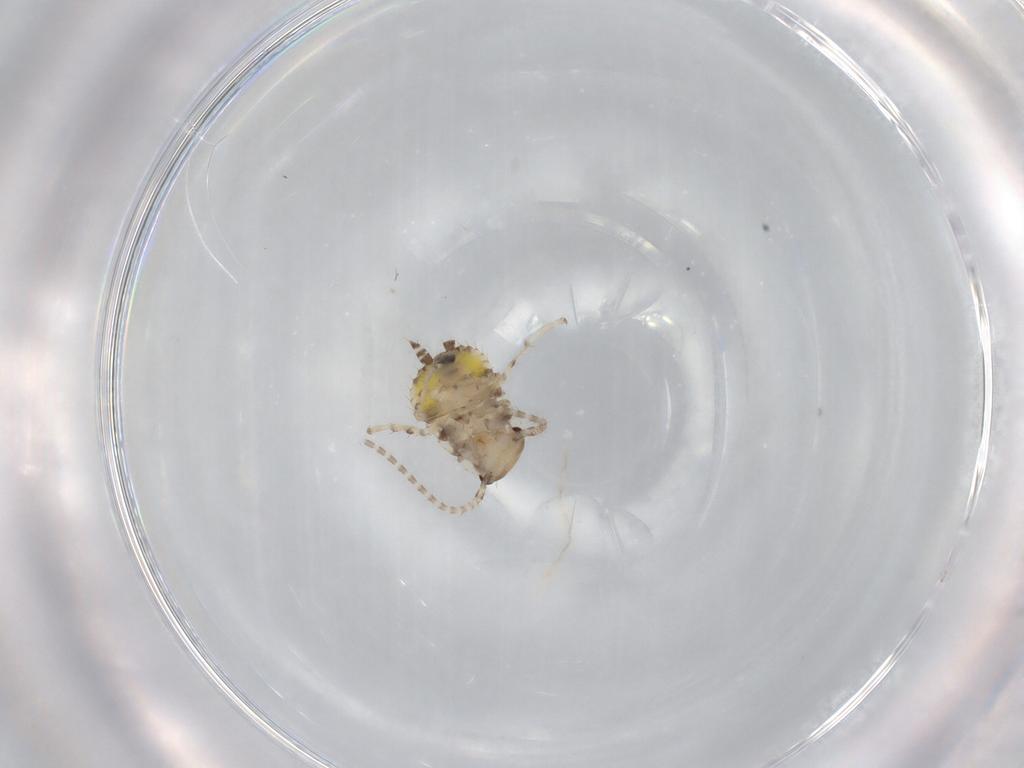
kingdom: Animalia
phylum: Arthropoda
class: Insecta
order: Blattodea
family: Ectobiidae
